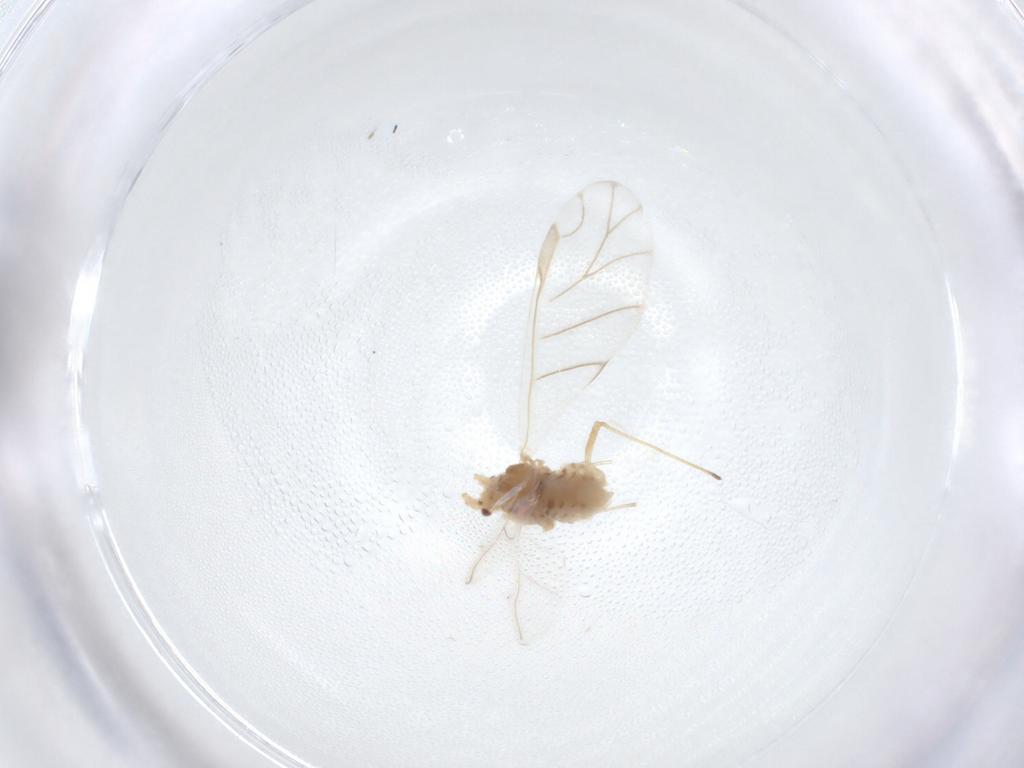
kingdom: Animalia
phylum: Arthropoda
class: Insecta
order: Hemiptera
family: Aphididae
